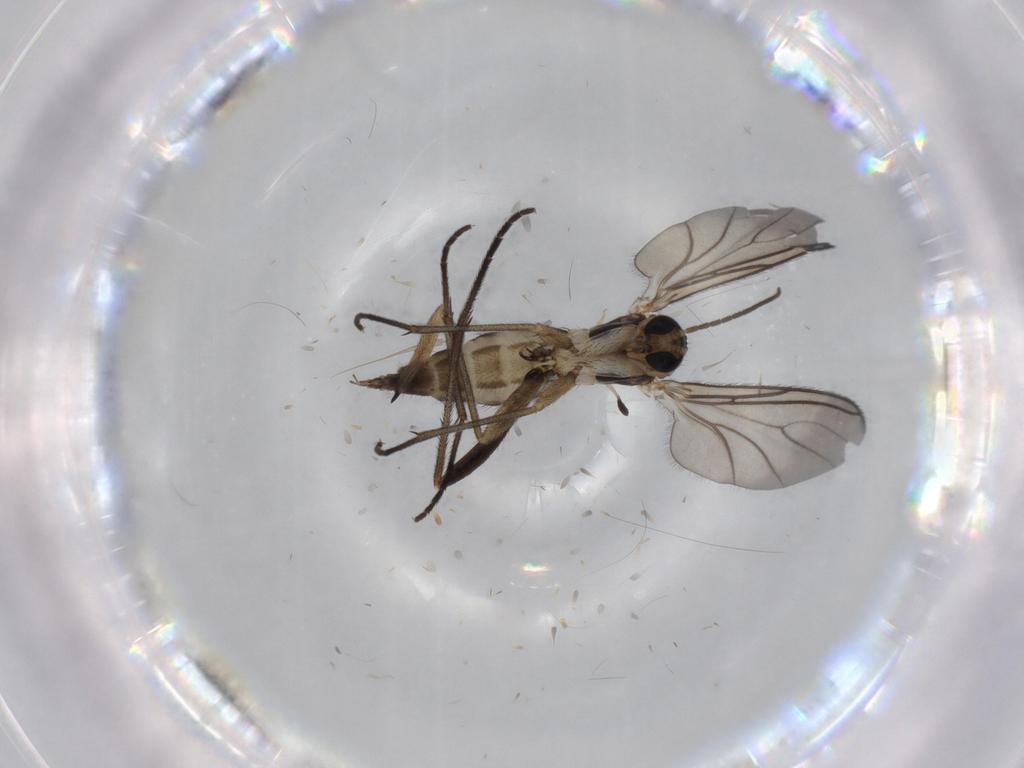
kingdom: Animalia
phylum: Arthropoda
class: Insecta
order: Diptera
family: Sciaridae
